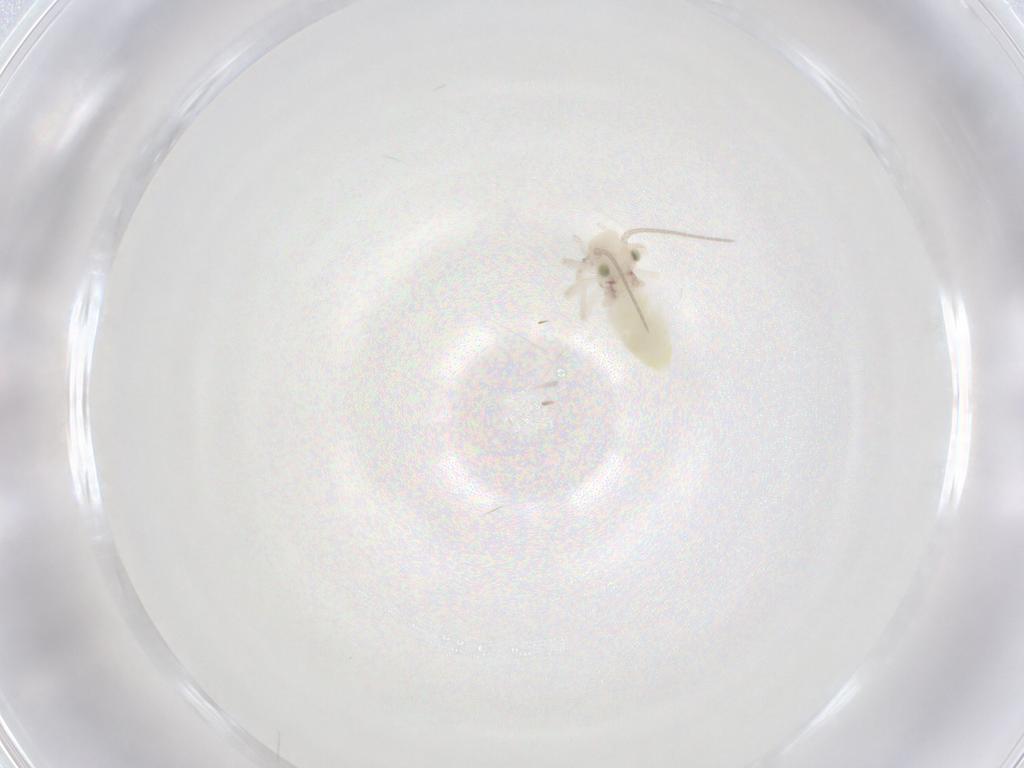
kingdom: Animalia
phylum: Arthropoda
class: Insecta
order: Psocodea
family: Caeciliusidae
